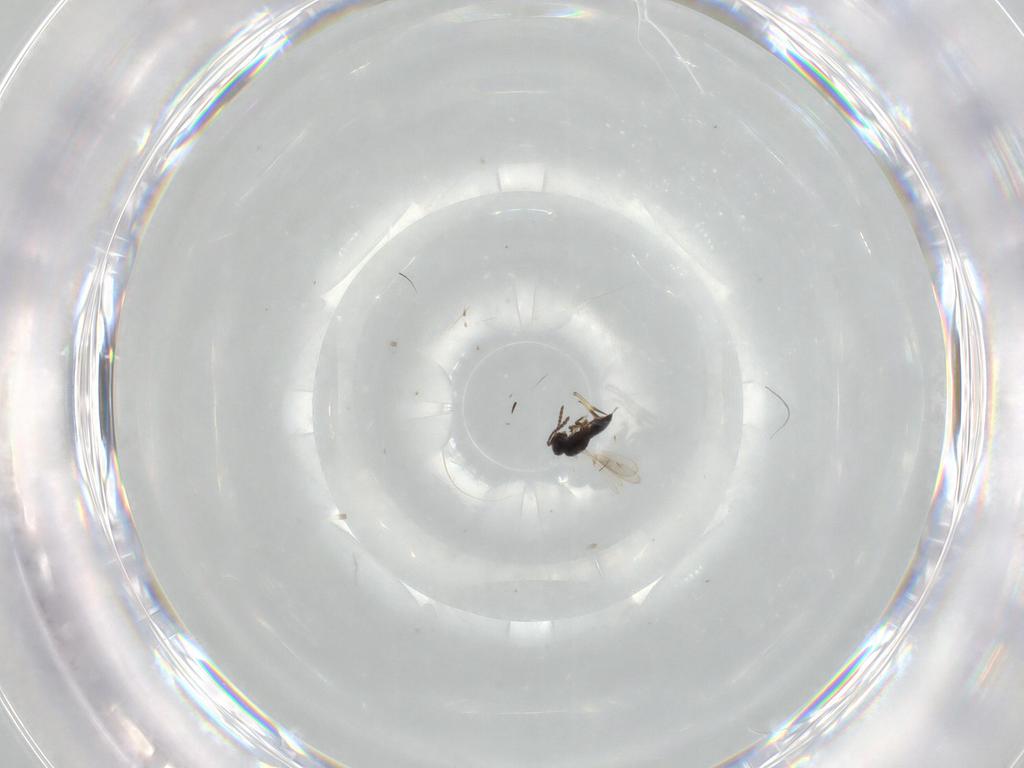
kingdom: Animalia
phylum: Arthropoda
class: Insecta
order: Hymenoptera
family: Scelionidae
